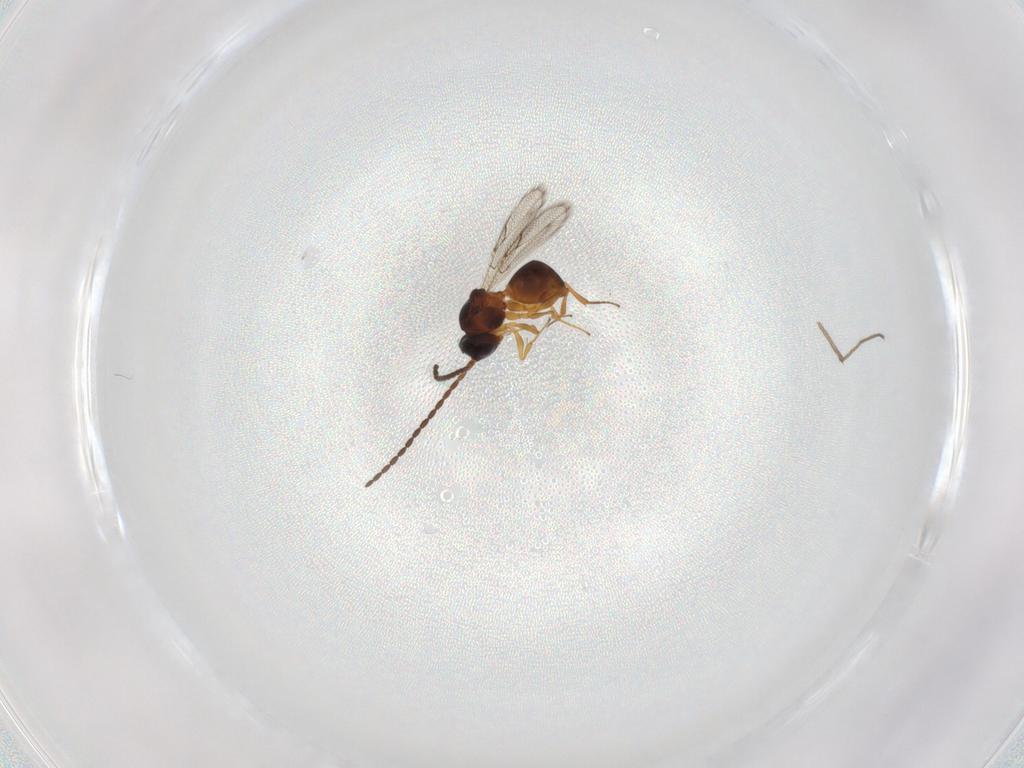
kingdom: Animalia
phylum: Arthropoda
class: Insecta
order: Hymenoptera
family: Figitidae
